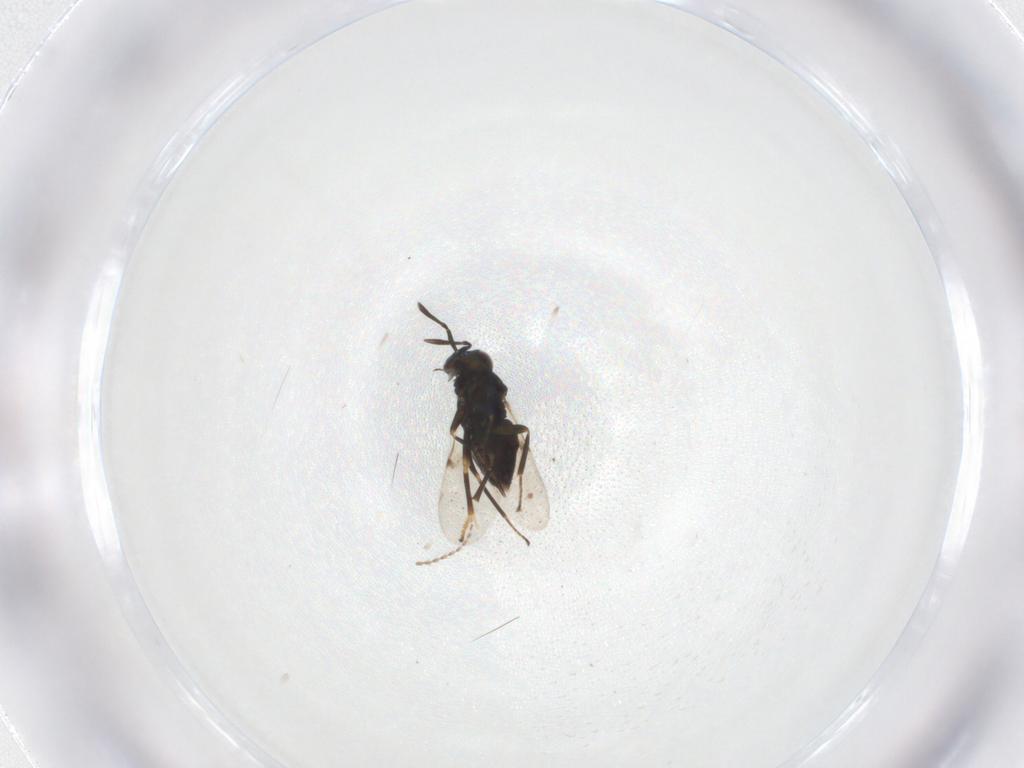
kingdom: Animalia
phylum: Arthropoda
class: Insecta
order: Hymenoptera
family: Encyrtidae
